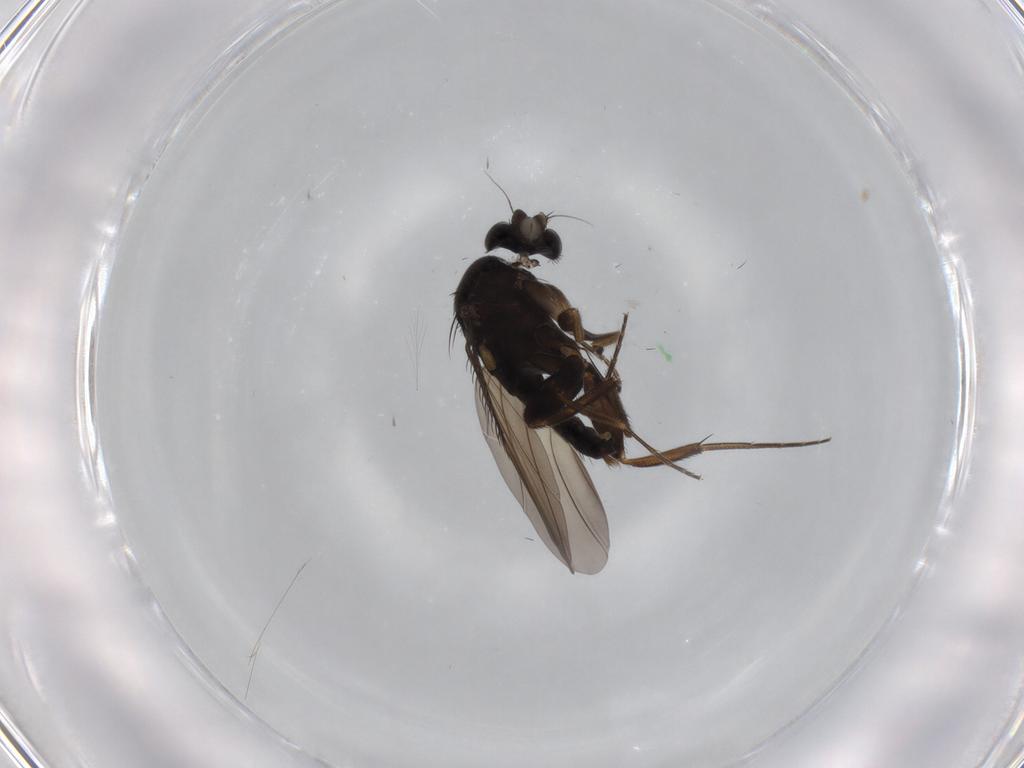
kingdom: Animalia
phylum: Arthropoda
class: Insecta
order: Diptera
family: Phoridae
